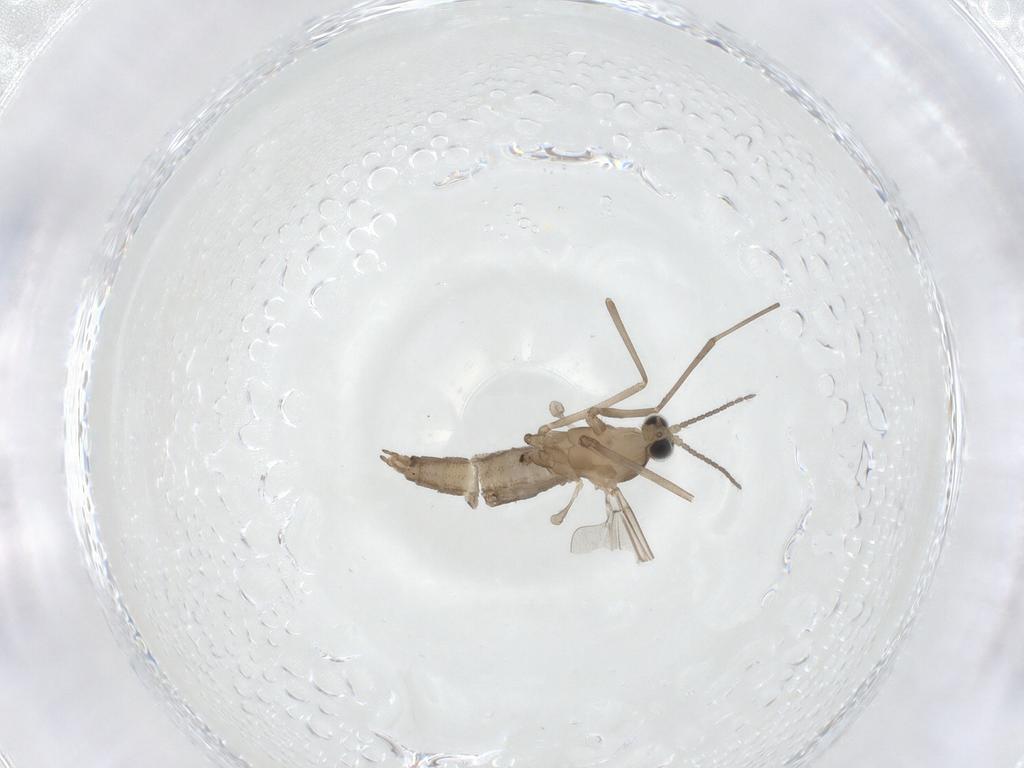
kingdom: Animalia
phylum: Arthropoda
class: Insecta
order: Diptera
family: Cecidomyiidae
